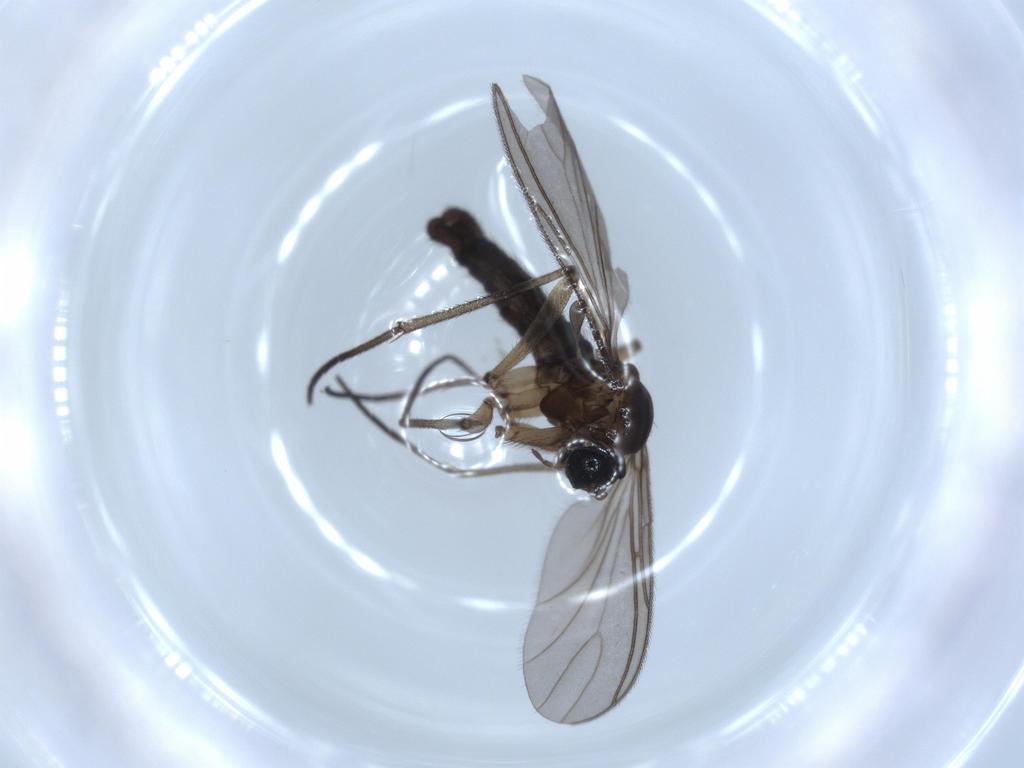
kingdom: Animalia
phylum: Arthropoda
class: Insecta
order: Diptera
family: Sciaridae
